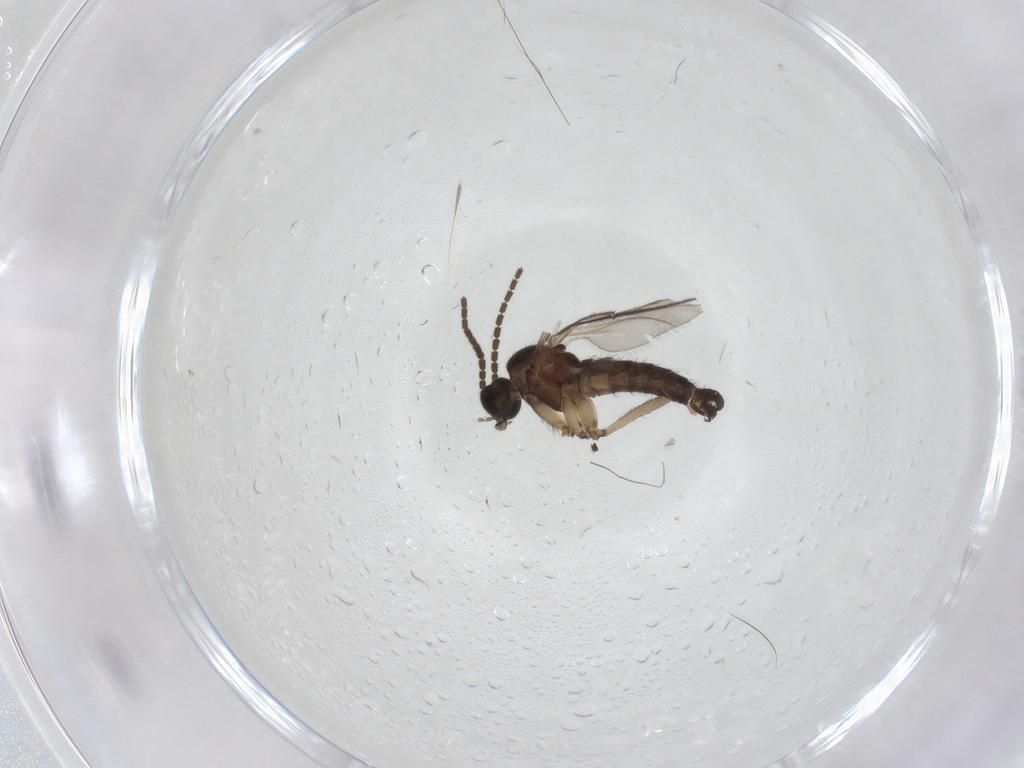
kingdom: Animalia
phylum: Arthropoda
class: Insecta
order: Diptera
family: Sciaridae
